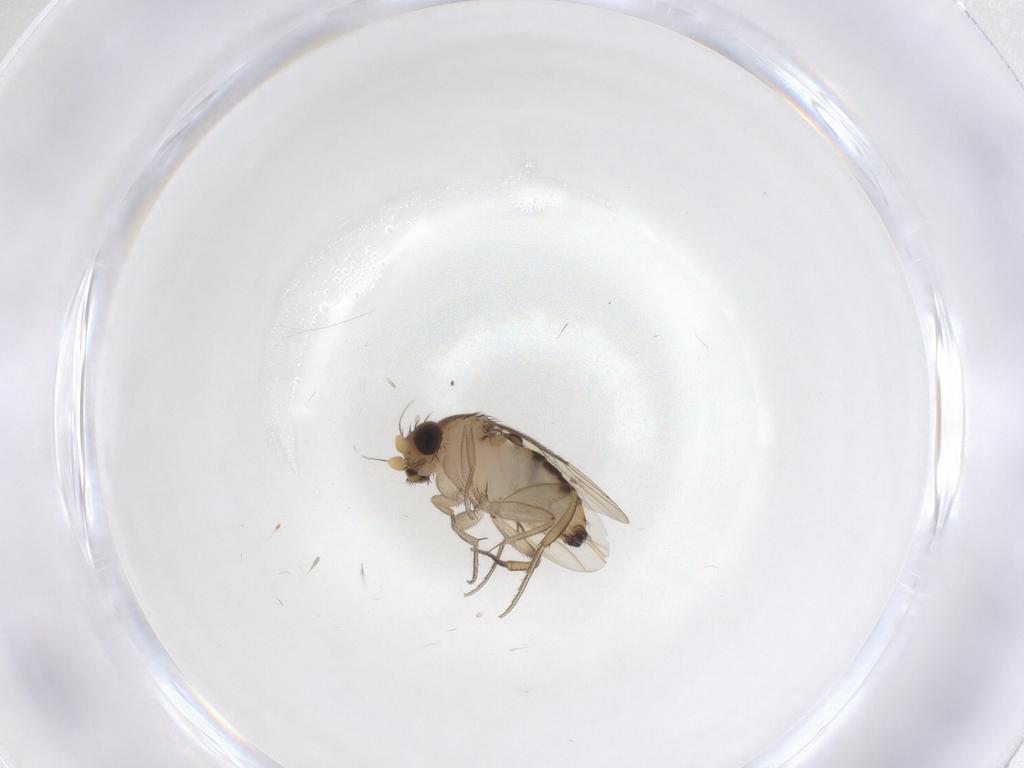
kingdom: Animalia
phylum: Arthropoda
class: Insecta
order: Diptera
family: Phoridae
